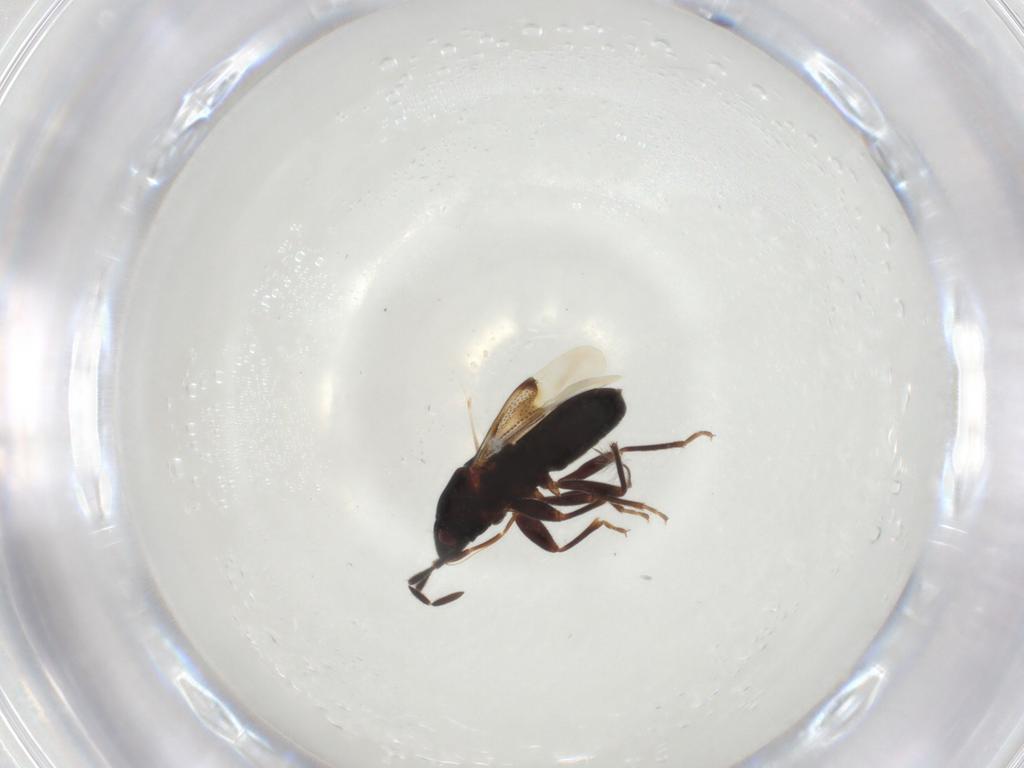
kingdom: Animalia
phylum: Arthropoda
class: Insecta
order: Hemiptera
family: Rhyparochromidae
